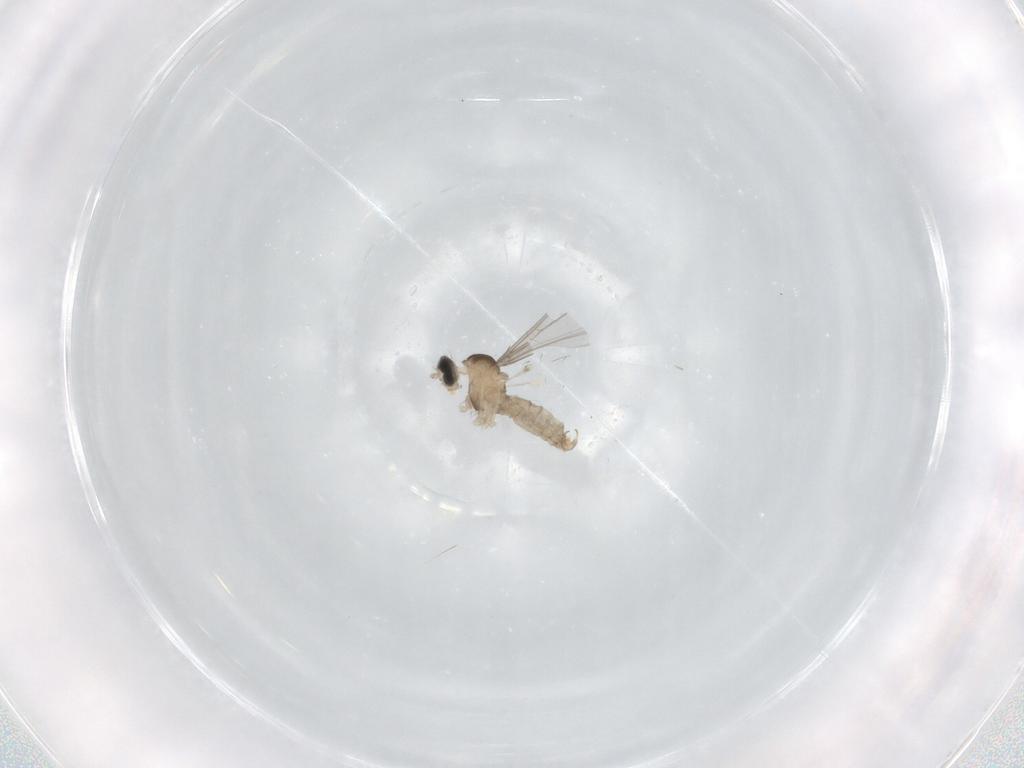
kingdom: Animalia
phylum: Arthropoda
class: Insecta
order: Diptera
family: Cecidomyiidae
